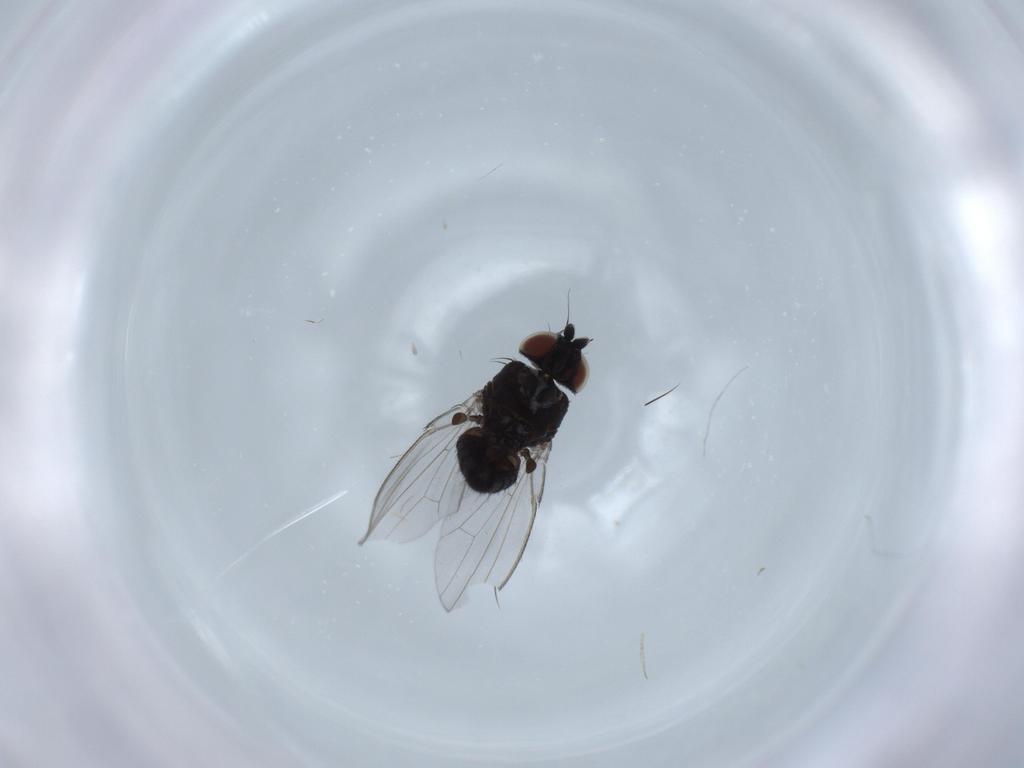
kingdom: Animalia
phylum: Arthropoda
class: Insecta
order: Diptera
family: Milichiidae
